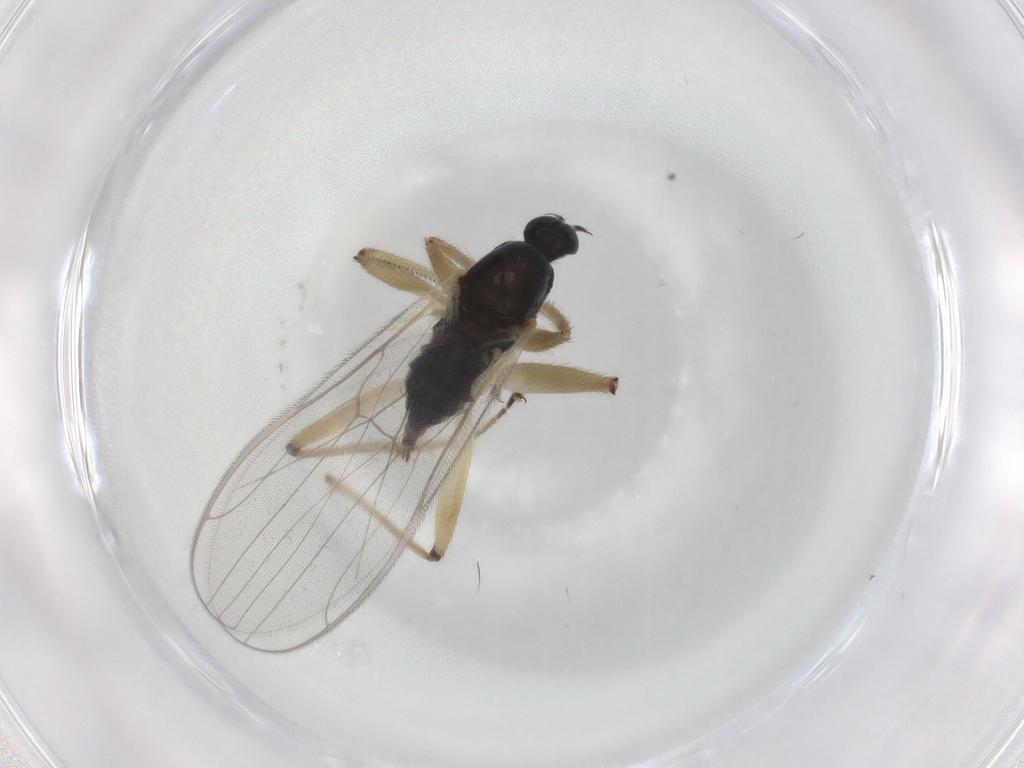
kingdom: Animalia
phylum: Arthropoda
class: Insecta
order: Diptera
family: Hybotidae
